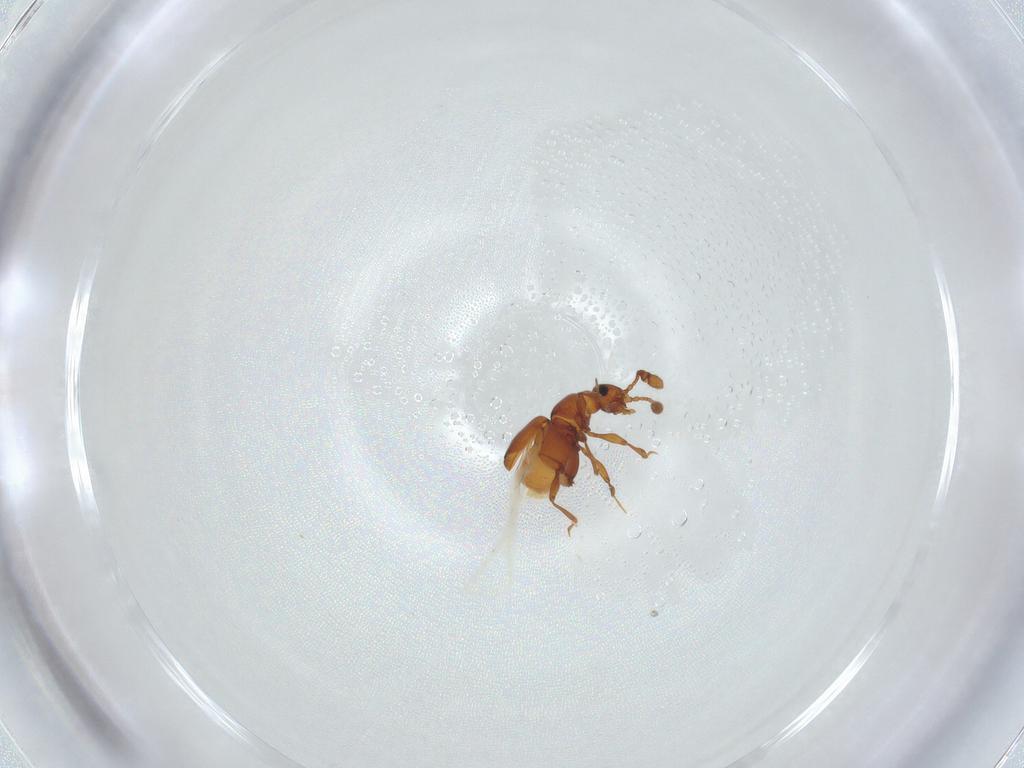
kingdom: Animalia
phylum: Arthropoda
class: Insecta
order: Coleoptera
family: Staphylinidae
